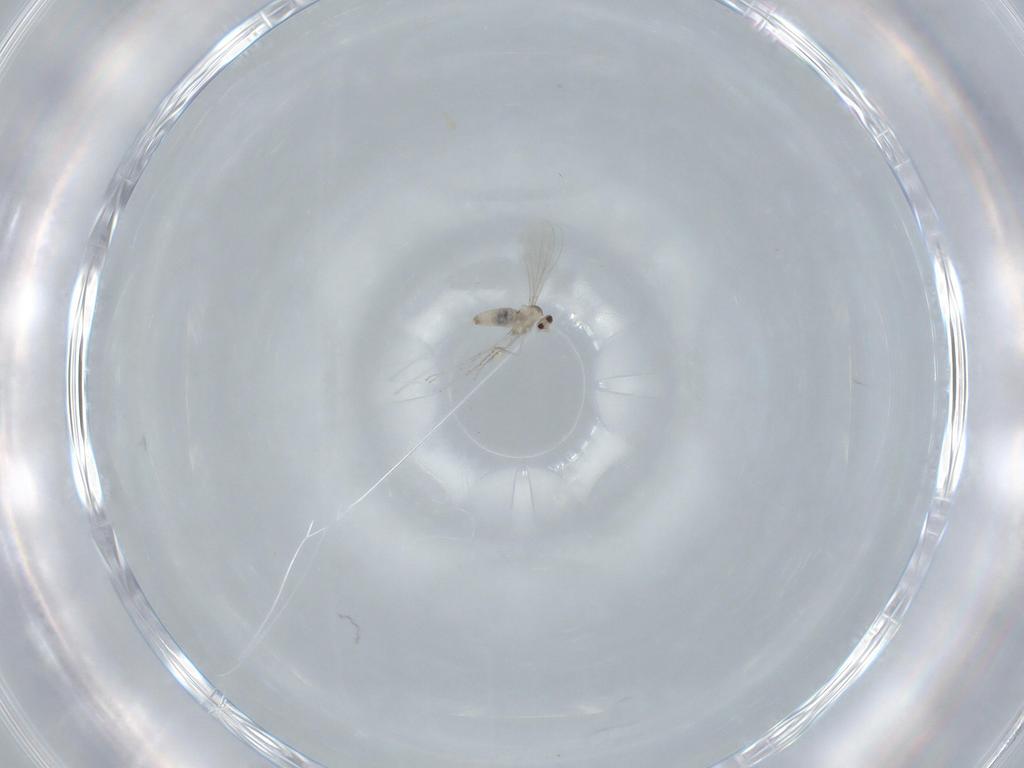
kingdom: Animalia
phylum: Arthropoda
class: Insecta
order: Diptera
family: Cecidomyiidae
